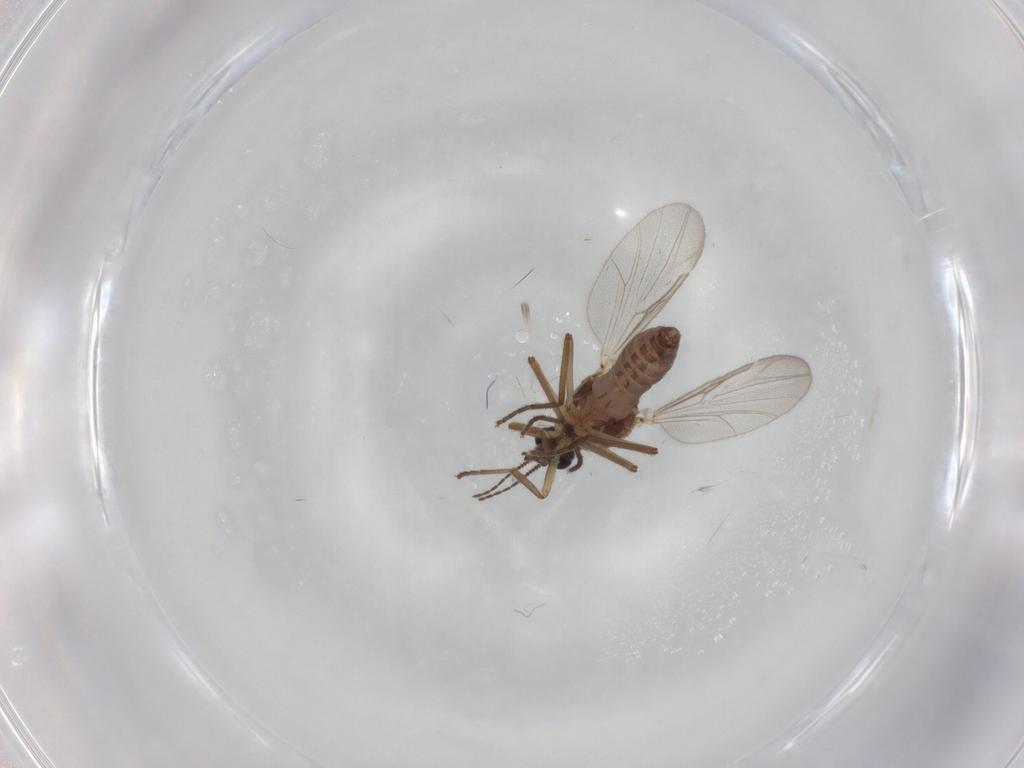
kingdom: Animalia
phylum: Arthropoda
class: Insecta
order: Diptera
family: Ceratopogonidae
